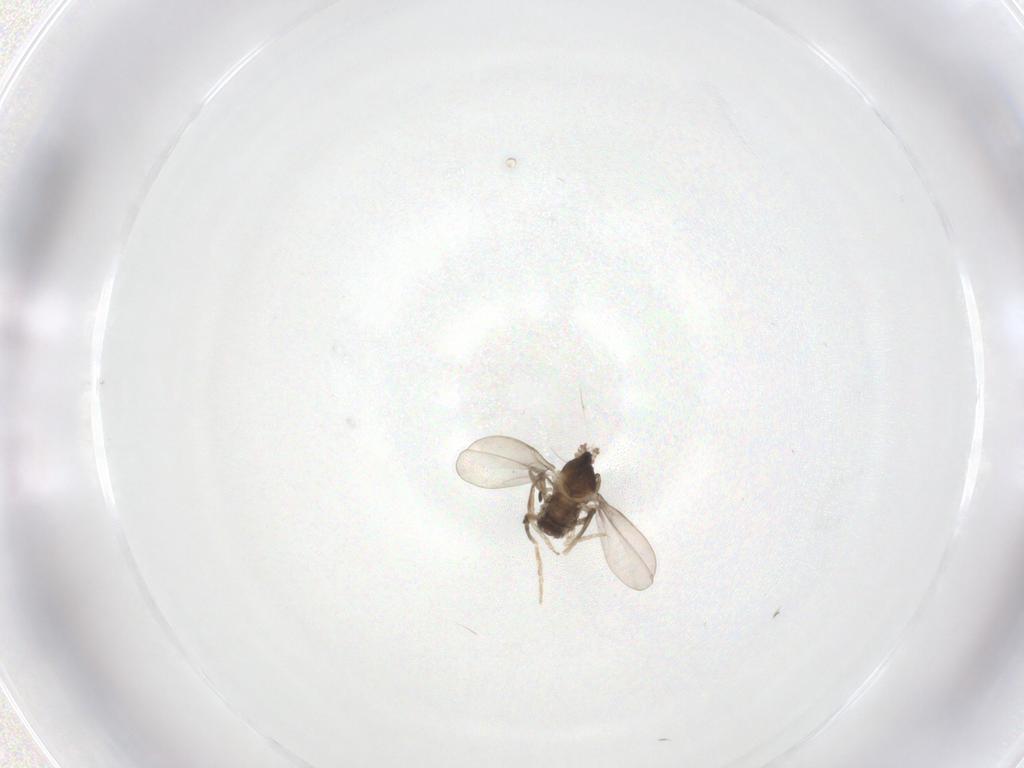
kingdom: Animalia
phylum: Arthropoda
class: Insecta
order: Diptera
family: Cecidomyiidae
